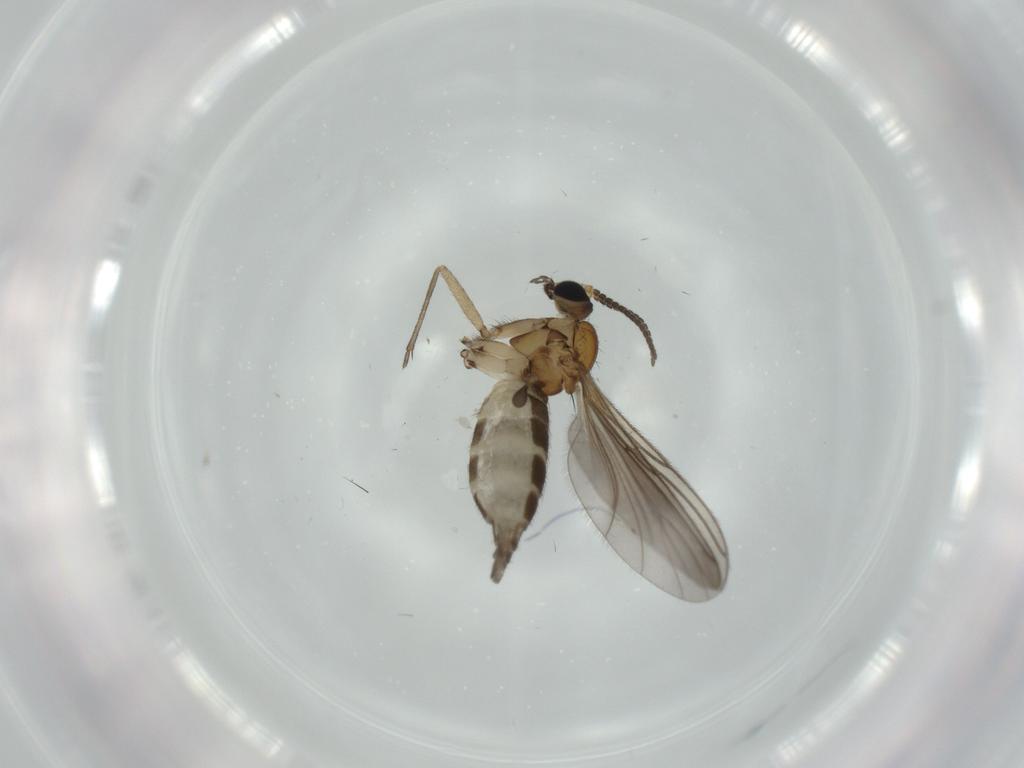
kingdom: Animalia
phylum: Arthropoda
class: Insecta
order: Diptera
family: Sciaridae
